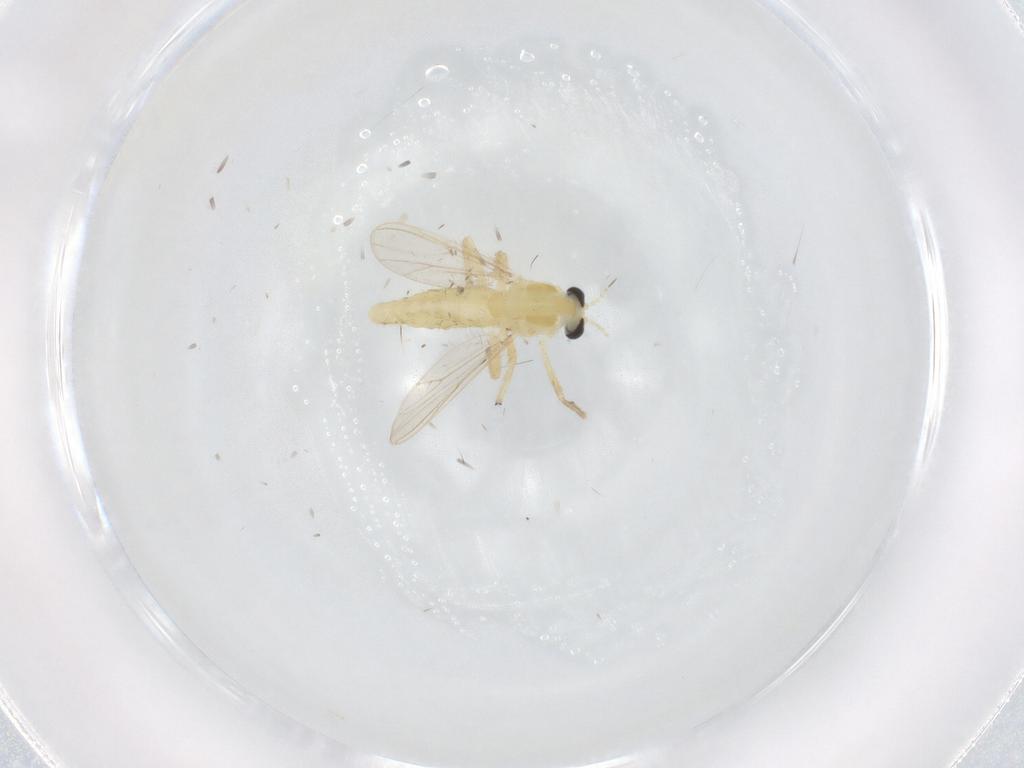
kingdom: Animalia
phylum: Arthropoda
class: Insecta
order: Diptera
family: Chironomidae
